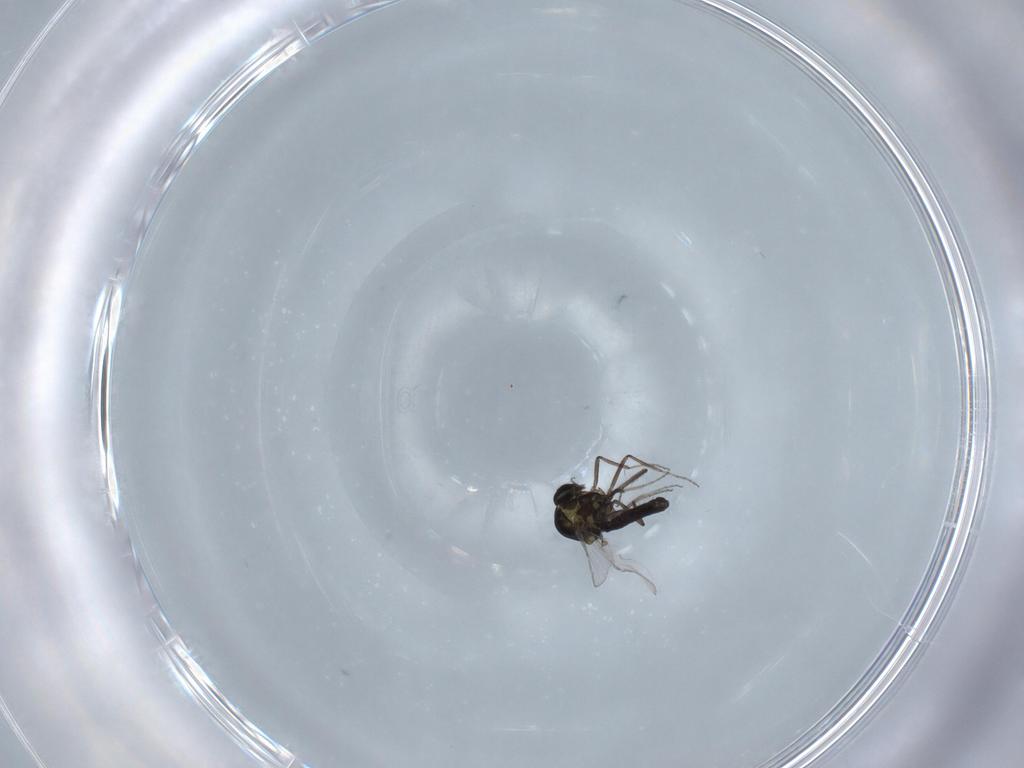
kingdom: Animalia
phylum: Arthropoda
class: Insecta
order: Diptera
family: Ceratopogonidae
